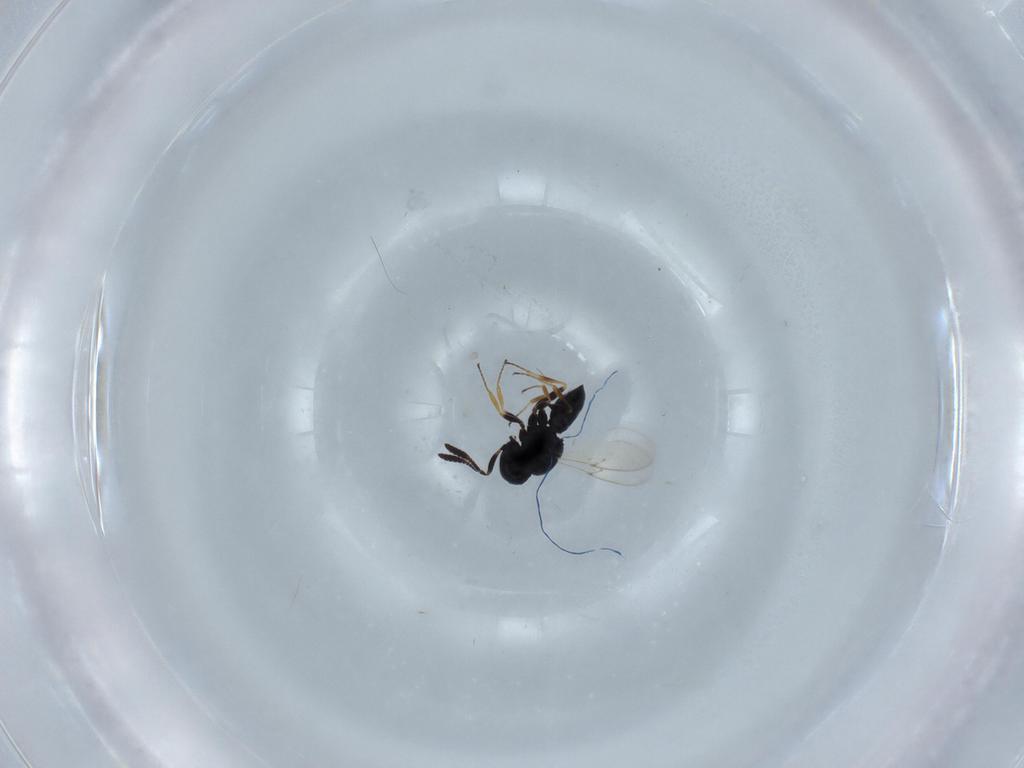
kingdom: Animalia
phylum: Arthropoda
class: Insecta
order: Hymenoptera
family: Scelionidae
